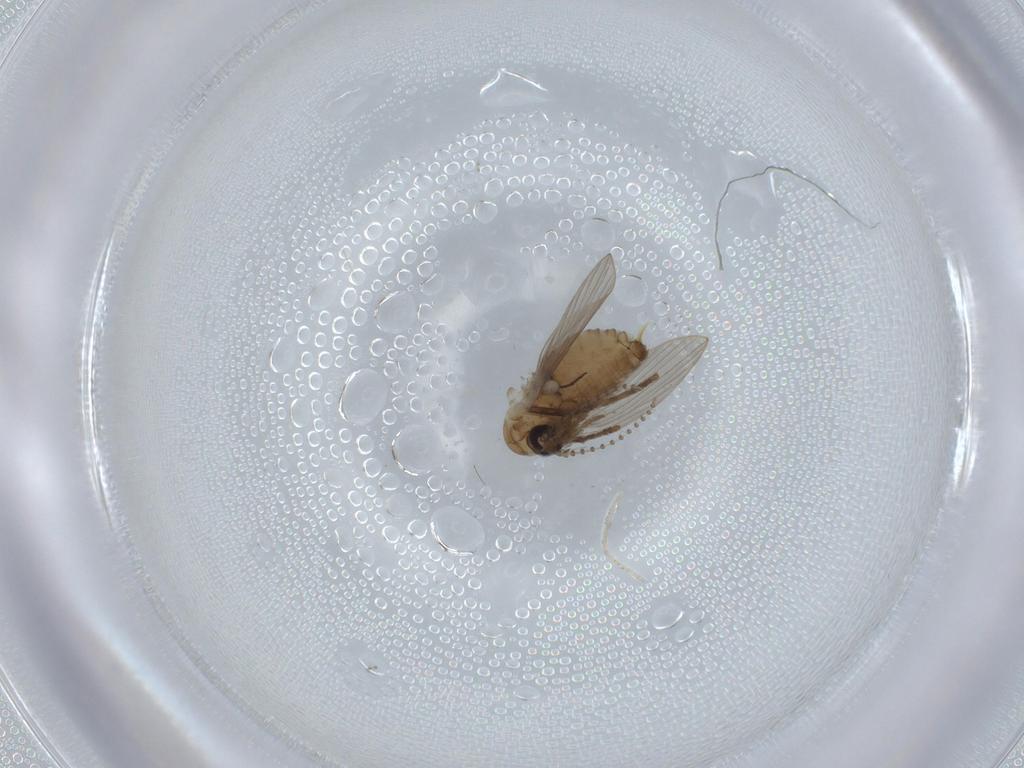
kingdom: Animalia
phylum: Arthropoda
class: Insecta
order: Diptera
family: Psychodidae
